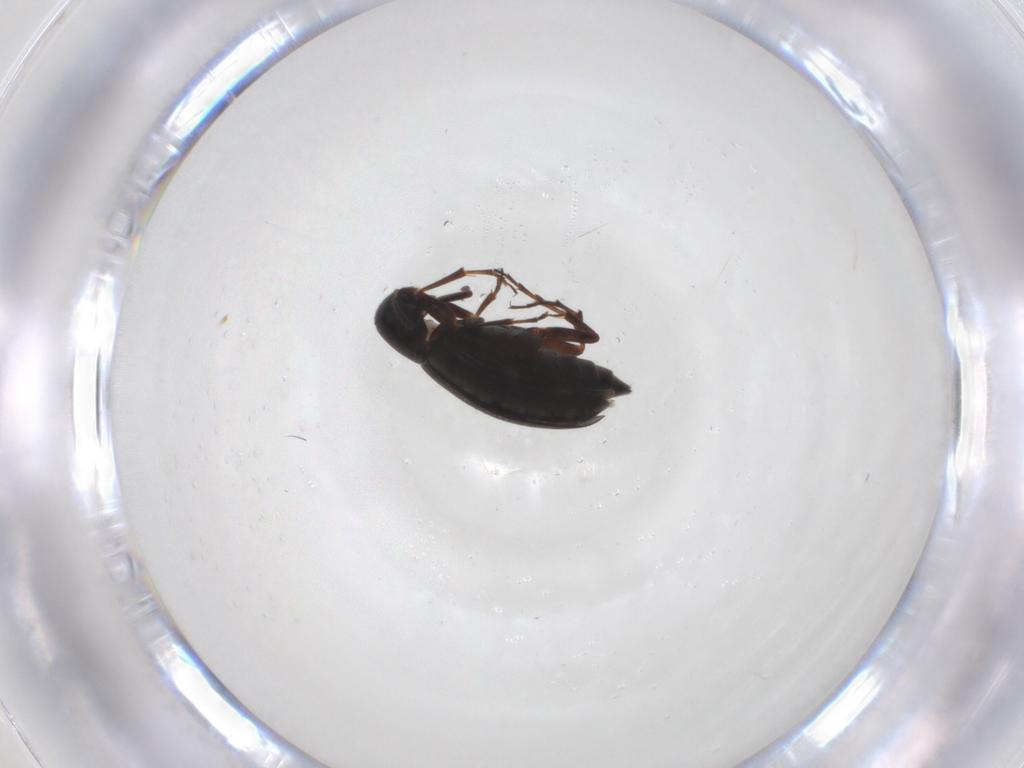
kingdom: Animalia
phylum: Arthropoda
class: Insecta
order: Coleoptera
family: Scraptiidae
